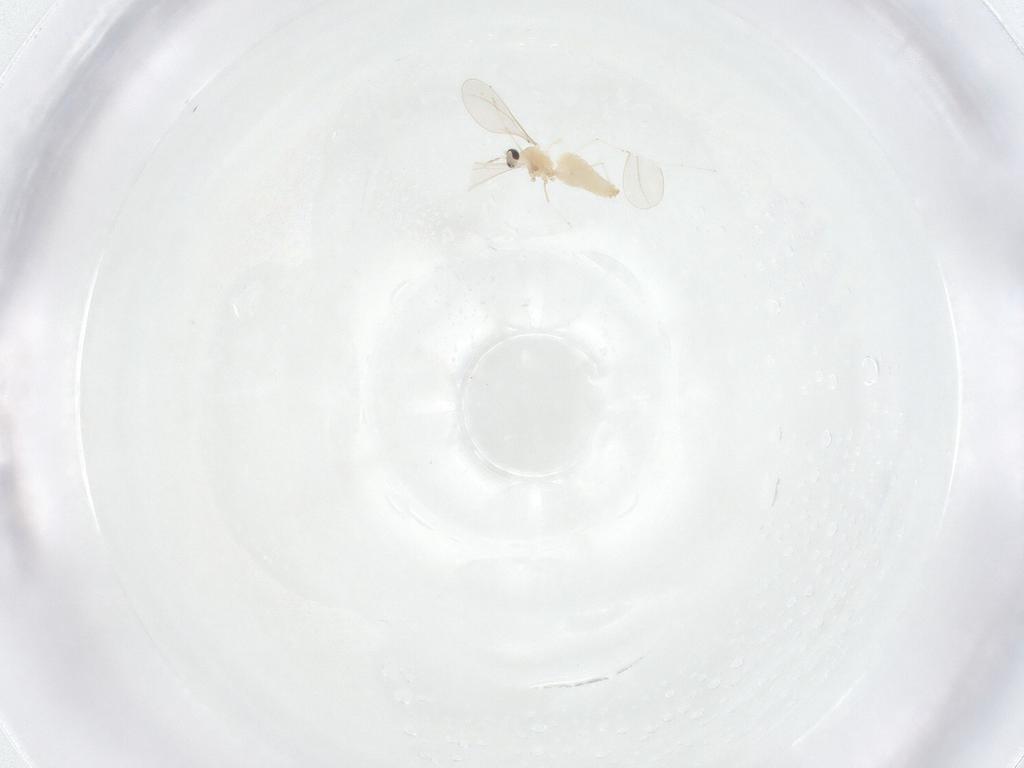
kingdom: Animalia
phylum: Arthropoda
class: Insecta
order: Diptera
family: Cecidomyiidae
